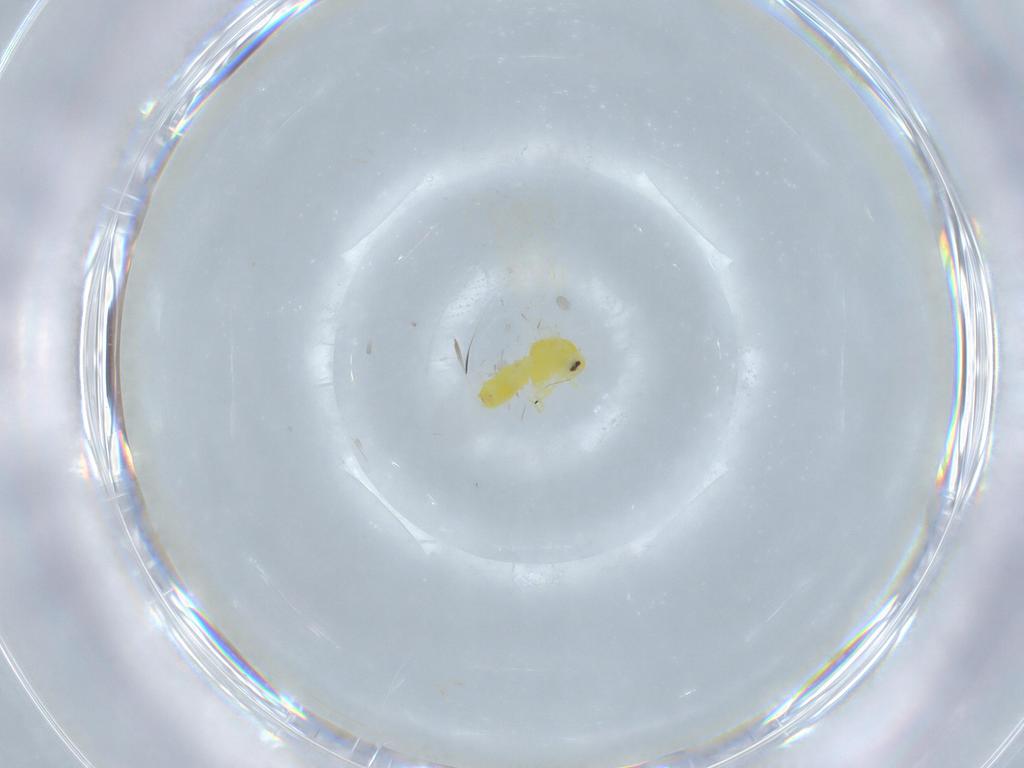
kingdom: Animalia
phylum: Arthropoda
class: Insecta
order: Hemiptera
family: Aleyrodidae
